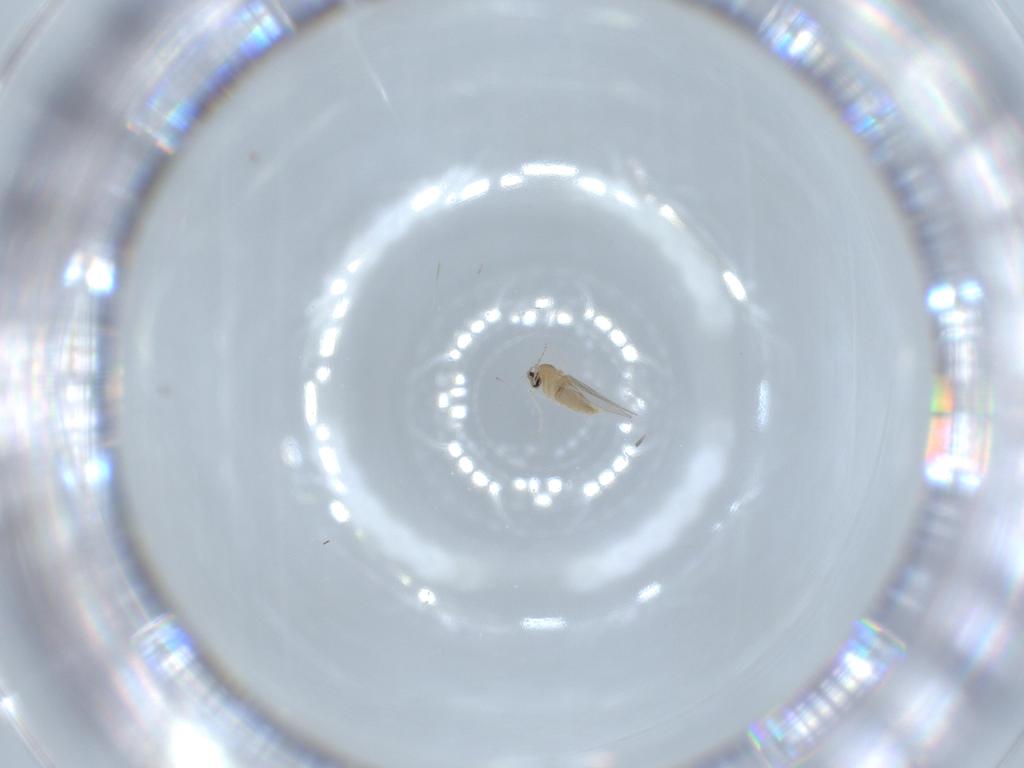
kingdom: Animalia
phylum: Arthropoda
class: Insecta
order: Diptera
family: Cecidomyiidae
